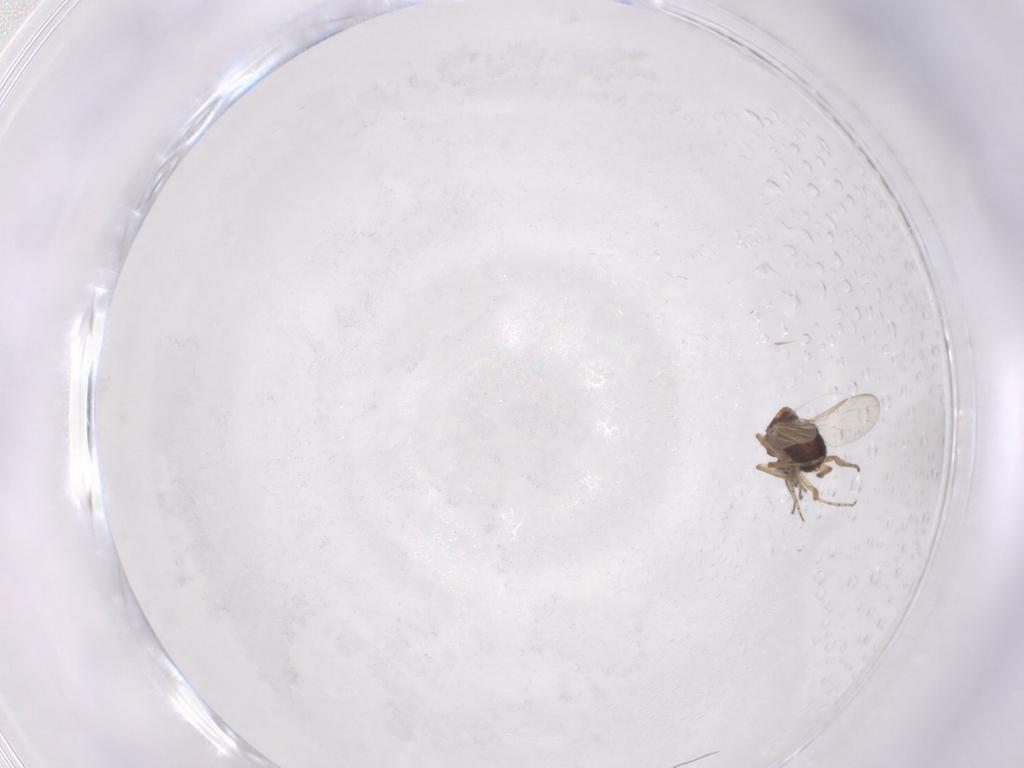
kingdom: Animalia
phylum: Arthropoda
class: Insecta
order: Diptera
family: Ceratopogonidae
